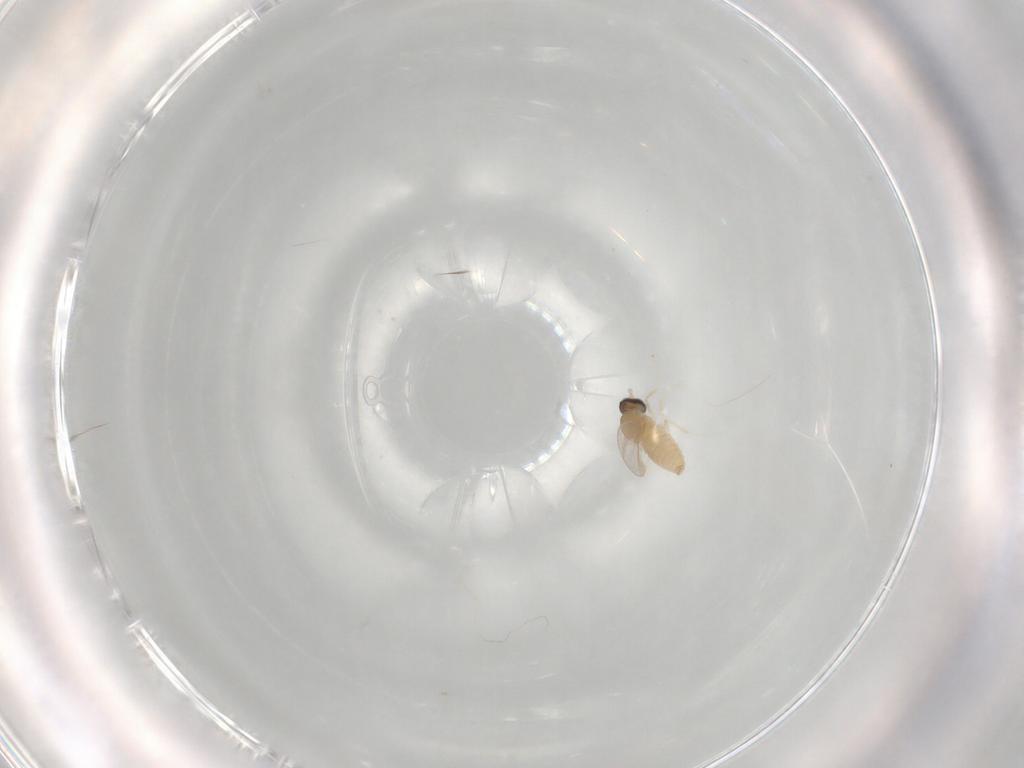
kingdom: Animalia
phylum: Arthropoda
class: Insecta
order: Diptera
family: Cecidomyiidae
